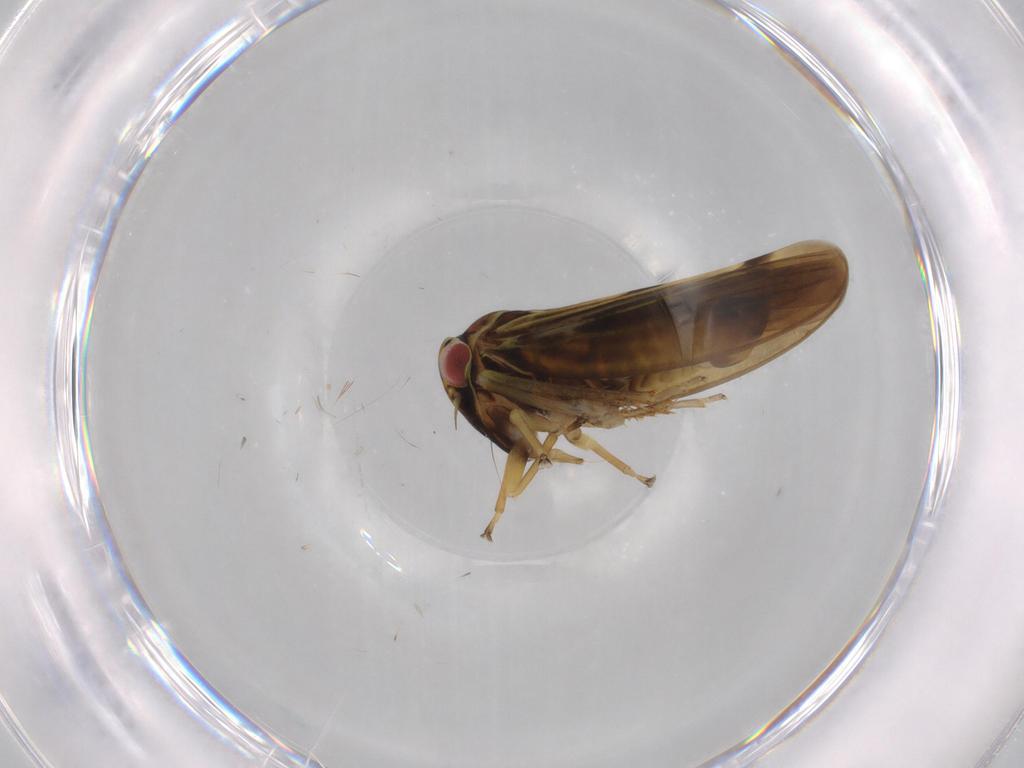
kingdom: Animalia
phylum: Arthropoda
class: Insecta
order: Hemiptera
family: Cicadellidae
